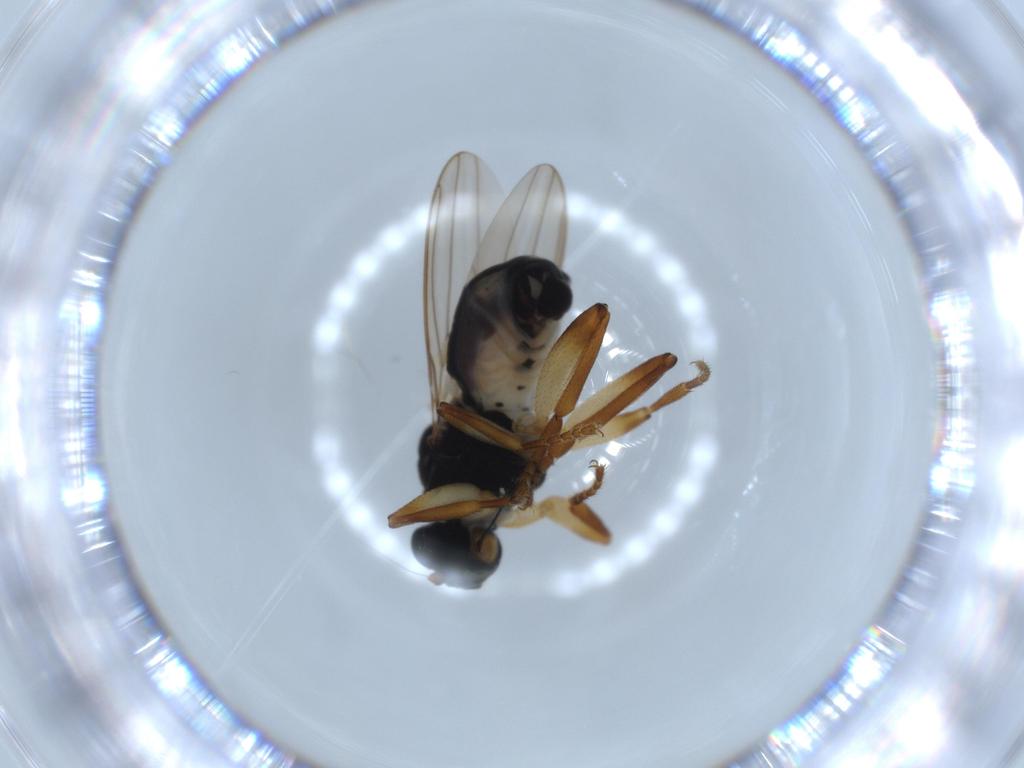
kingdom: Animalia
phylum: Arthropoda
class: Insecta
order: Diptera
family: Sphaeroceridae
